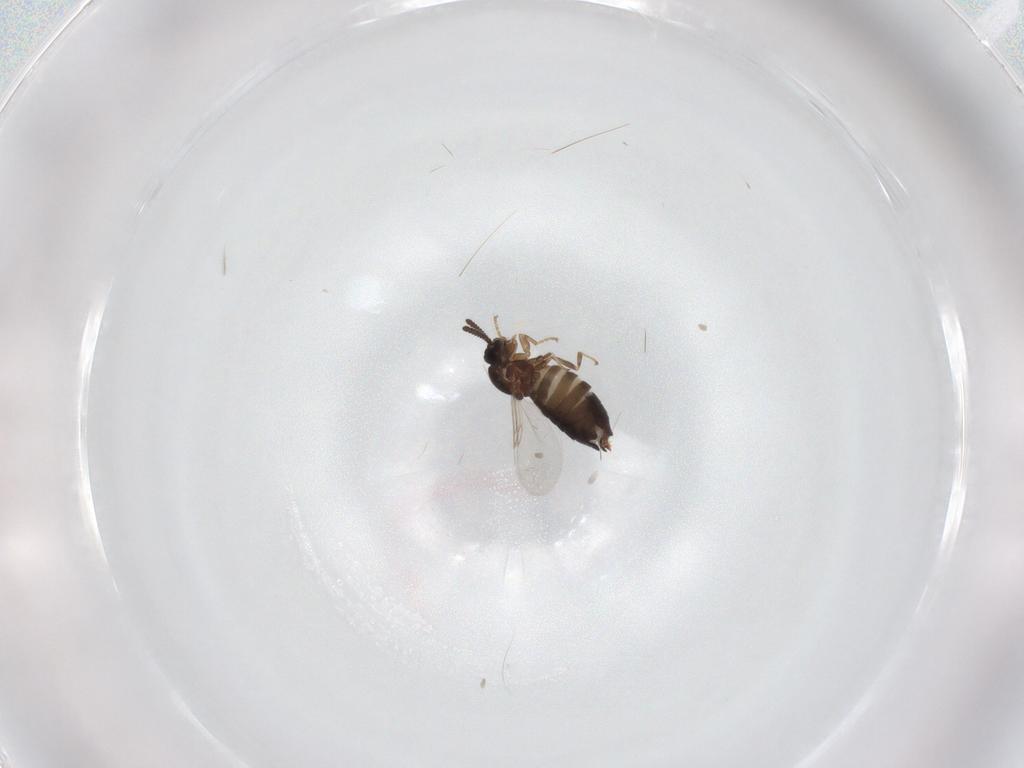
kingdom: Animalia
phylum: Arthropoda
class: Insecta
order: Diptera
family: Scatopsidae
